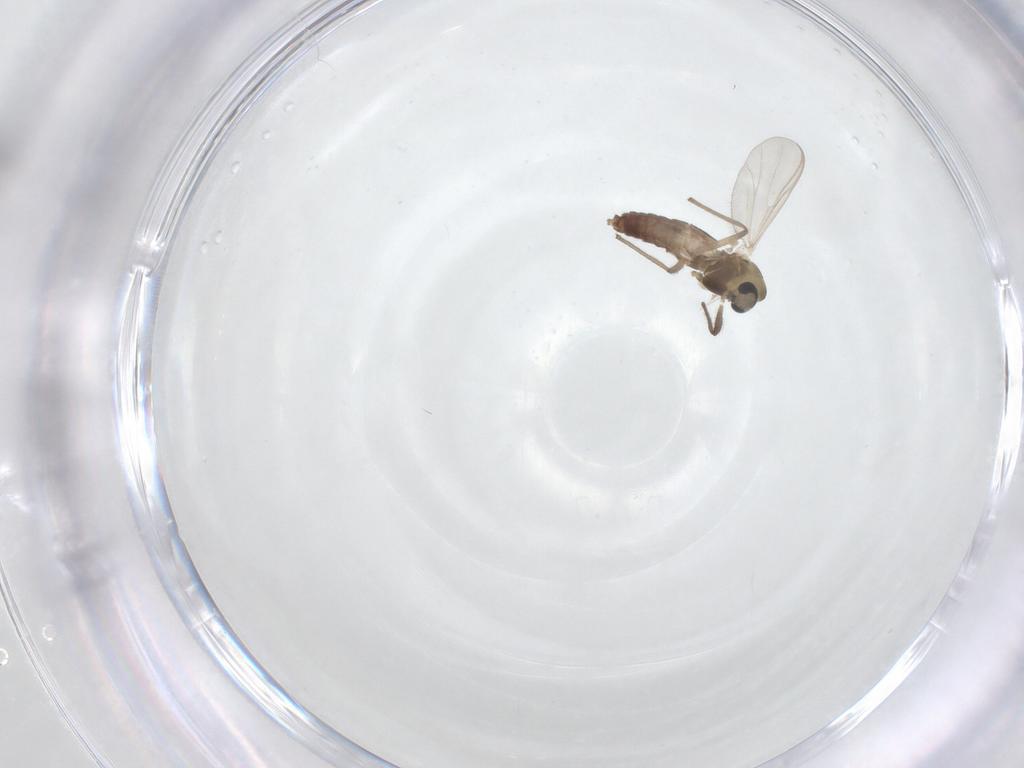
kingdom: Animalia
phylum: Arthropoda
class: Insecta
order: Diptera
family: Chironomidae
